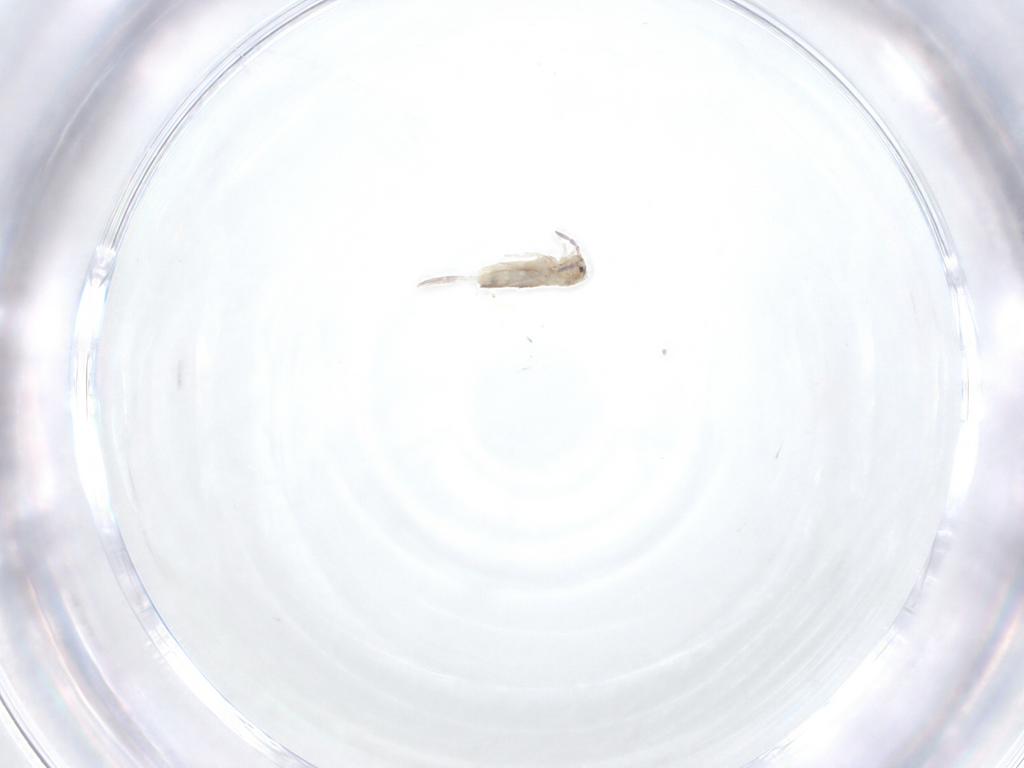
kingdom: Animalia
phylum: Arthropoda
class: Collembola
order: Entomobryomorpha
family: Entomobryidae
